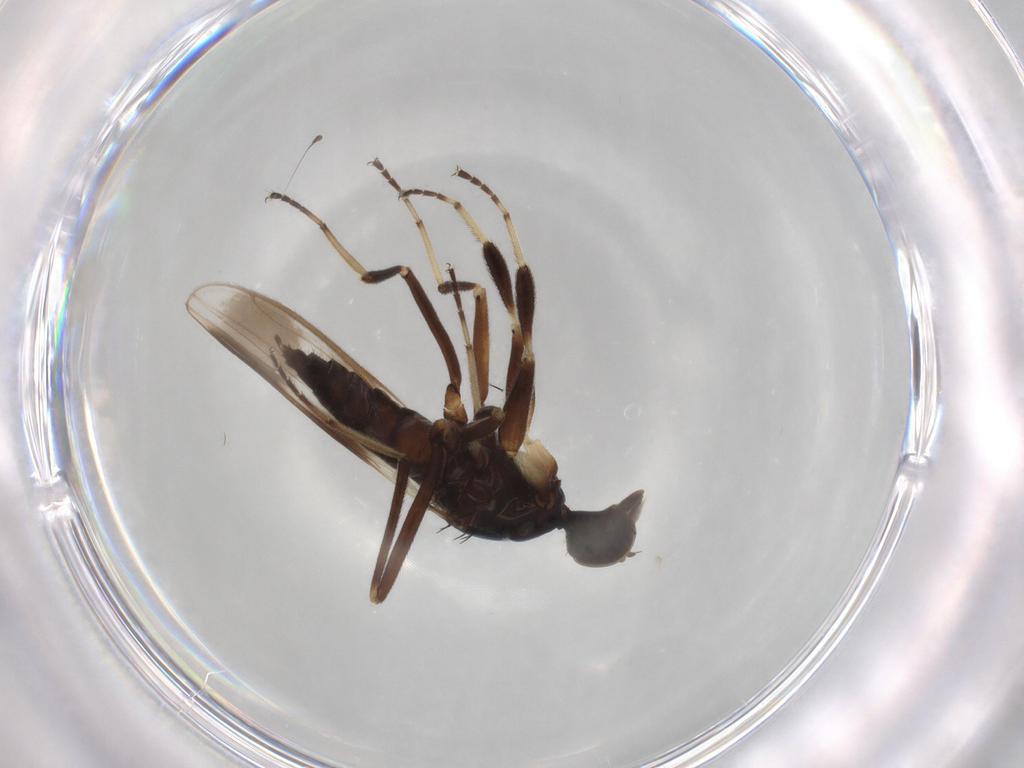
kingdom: Animalia
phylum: Arthropoda
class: Insecta
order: Diptera
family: Hybotidae
